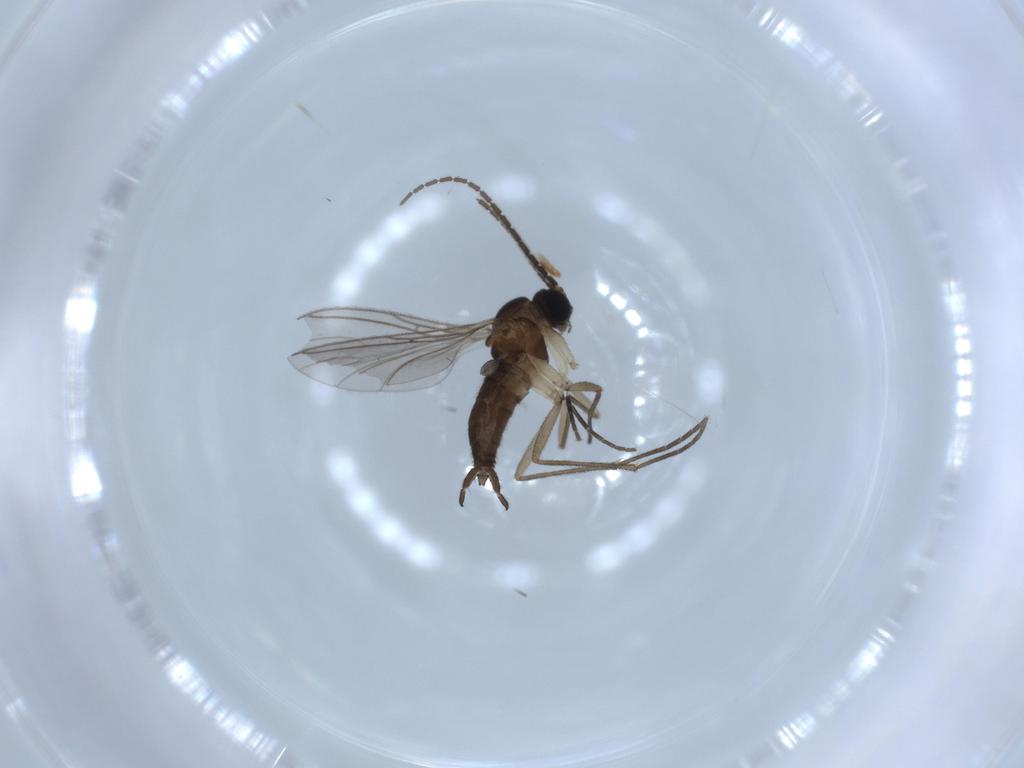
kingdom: Animalia
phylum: Arthropoda
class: Insecta
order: Diptera
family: Sciaridae
